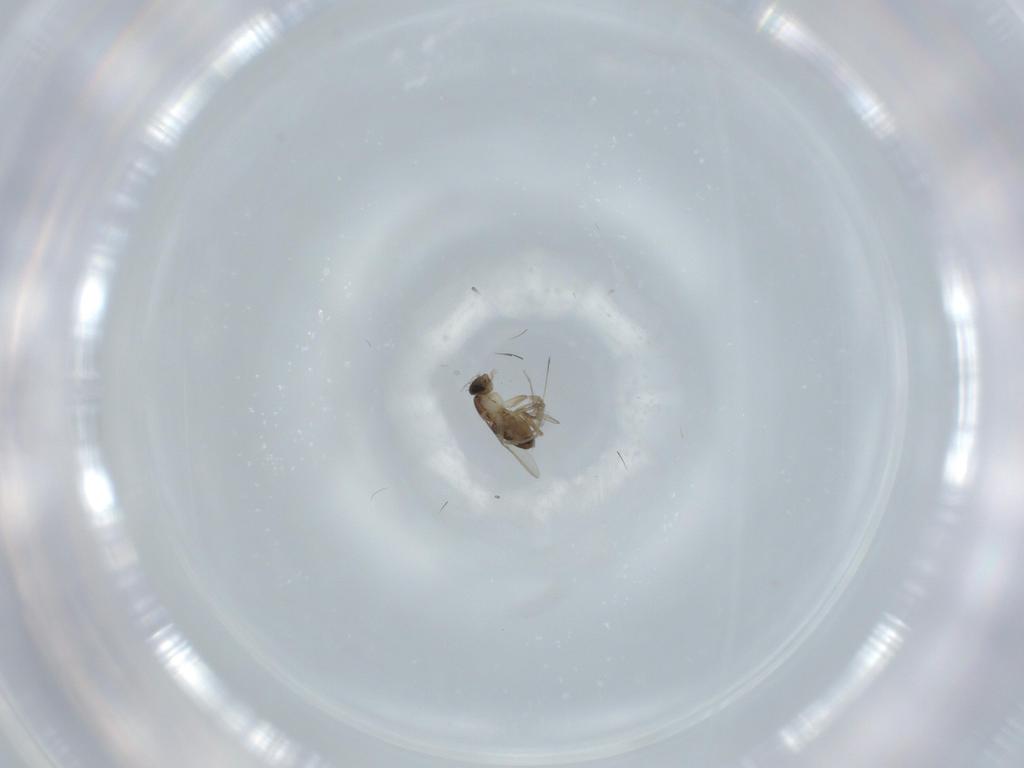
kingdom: Animalia
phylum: Arthropoda
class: Insecta
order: Diptera
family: Phoridae
